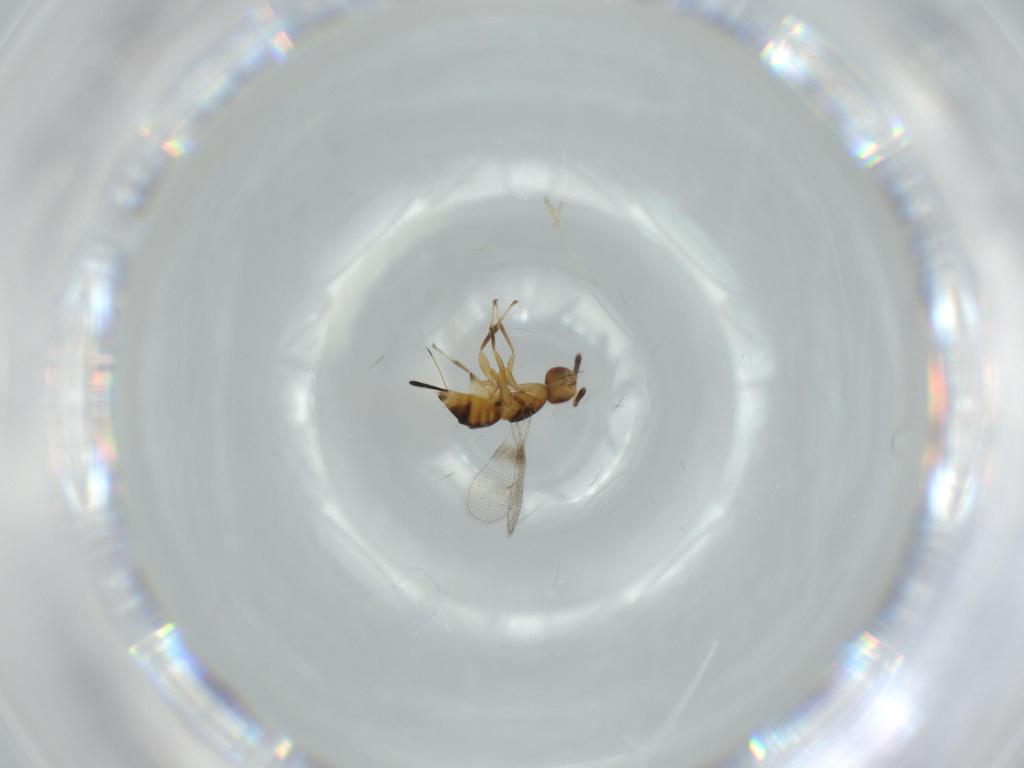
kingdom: Animalia
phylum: Arthropoda
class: Insecta
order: Hymenoptera
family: Torymidae
